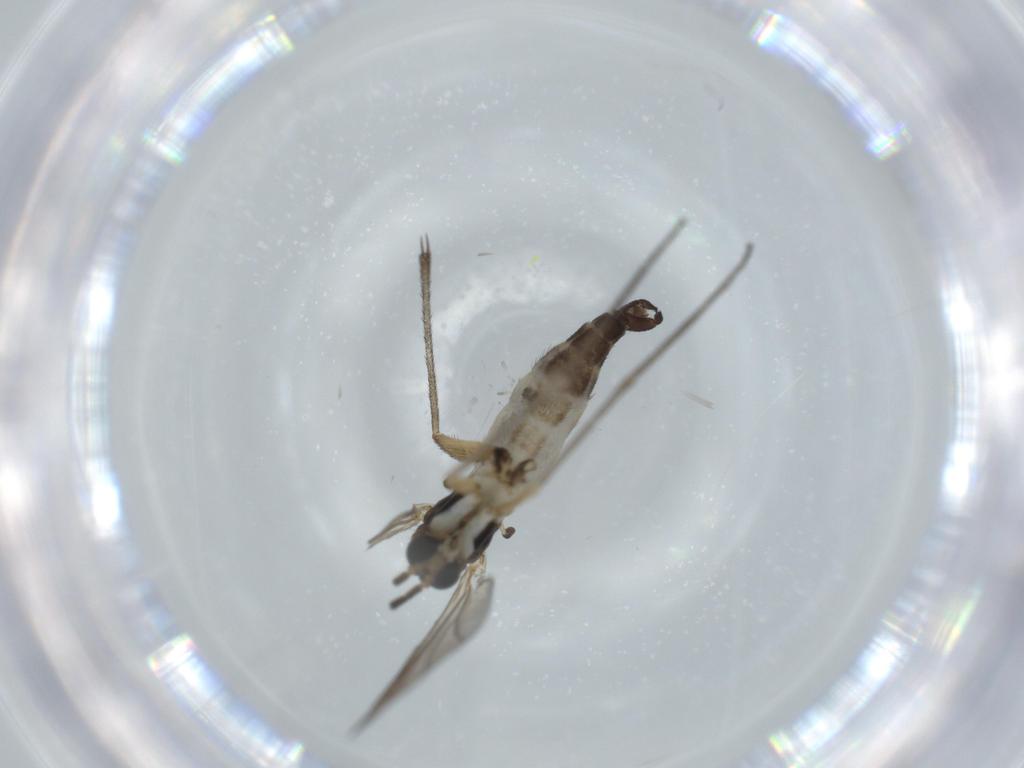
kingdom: Animalia
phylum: Arthropoda
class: Insecta
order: Diptera
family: Sciaridae
